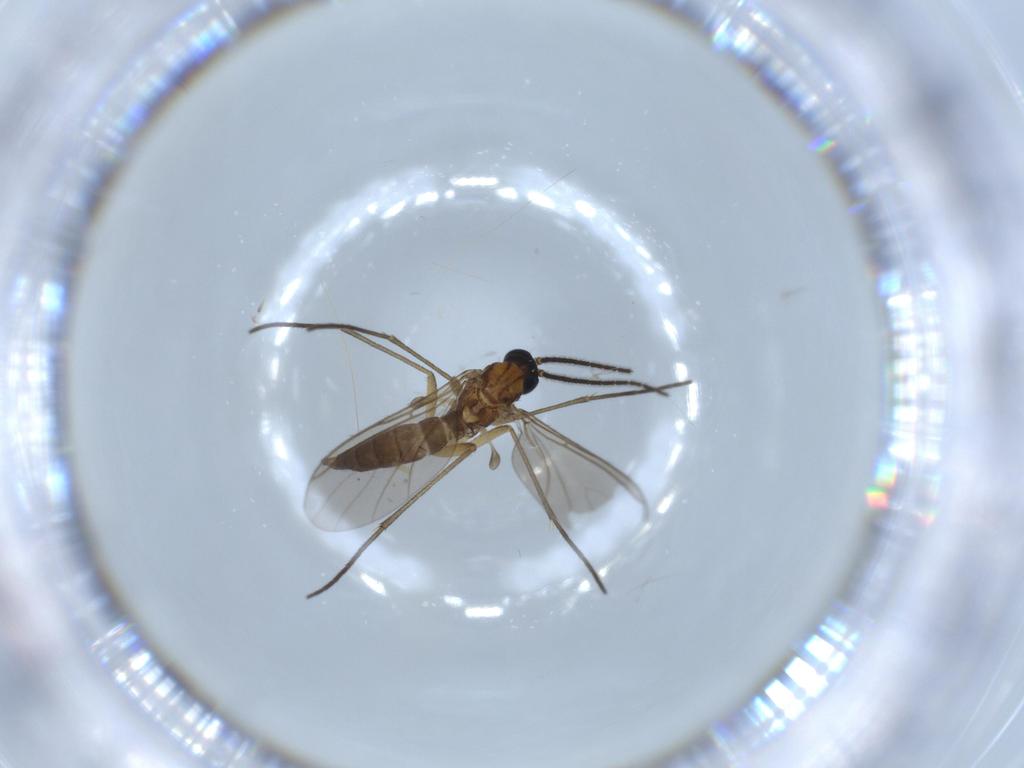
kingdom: Animalia
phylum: Arthropoda
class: Insecta
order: Diptera
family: Sciaridae
